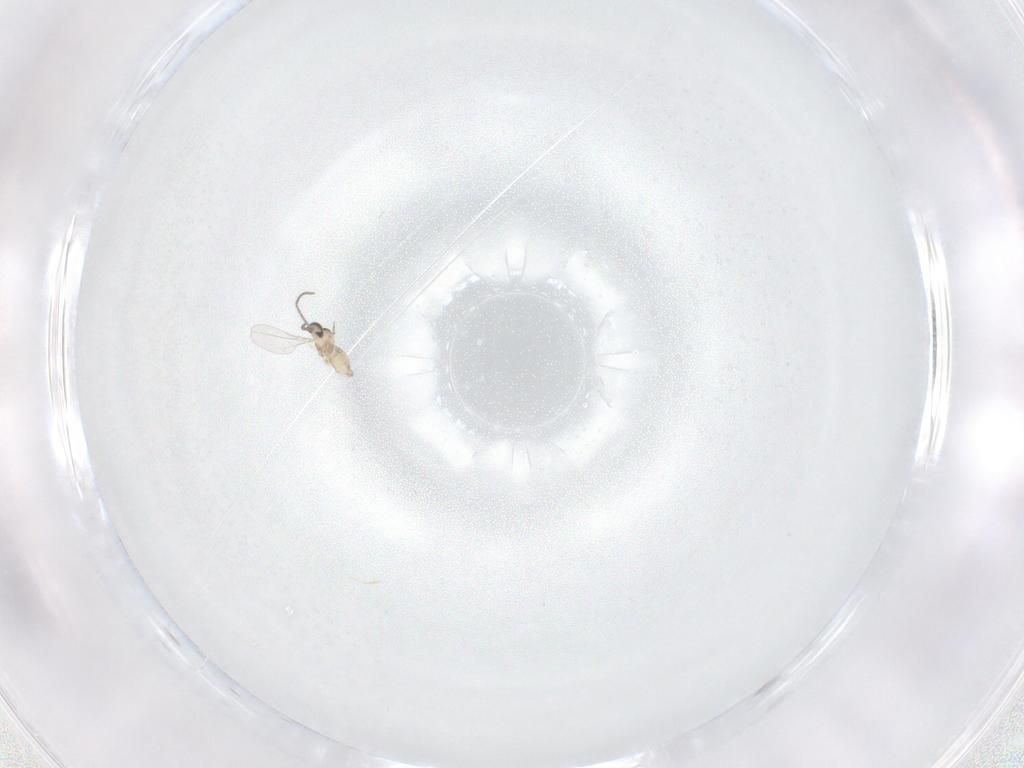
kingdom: Animalia
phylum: Arthropoda
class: Insecta
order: Diptera
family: Cecidomyiidae
